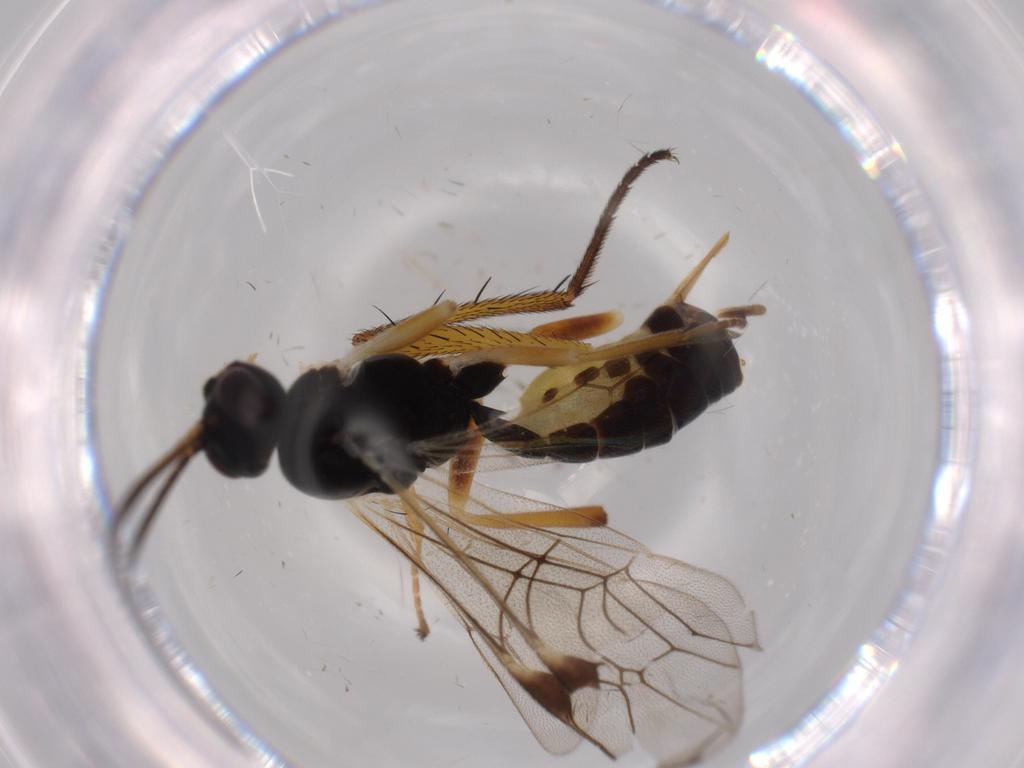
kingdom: Animalia
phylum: Arthropoda
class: Insecta
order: Hymenoptera
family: Ichneumonidae
